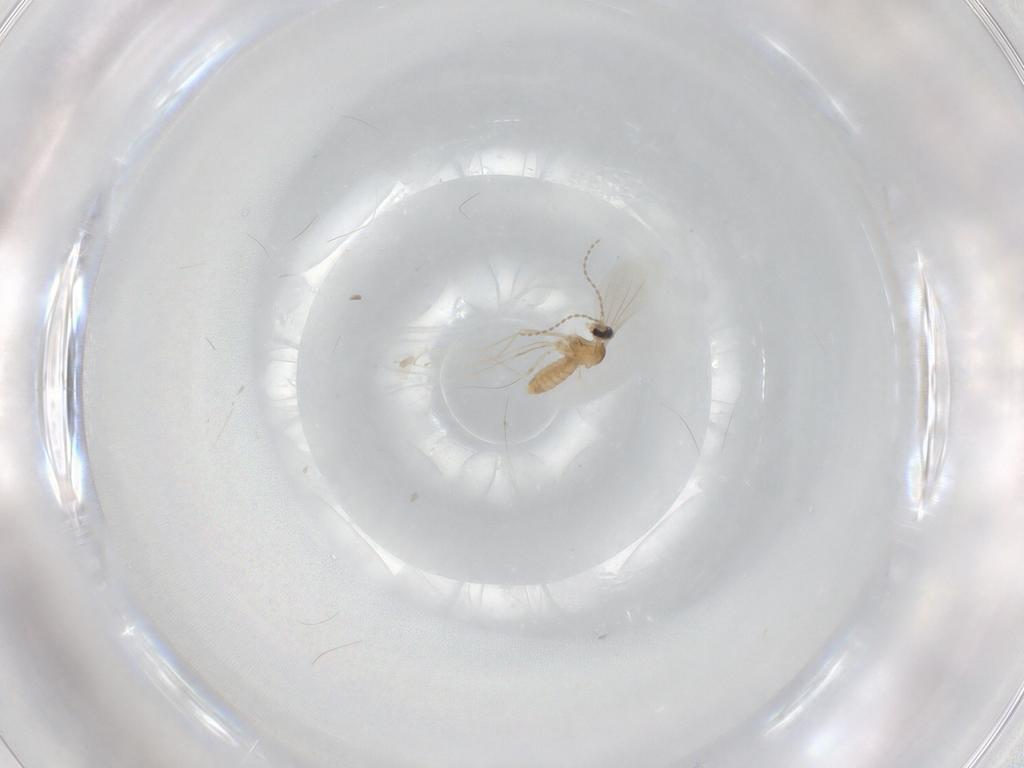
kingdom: Animalia
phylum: Arthropoda
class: Insecta
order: Diptera
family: Cecidomyiidae
